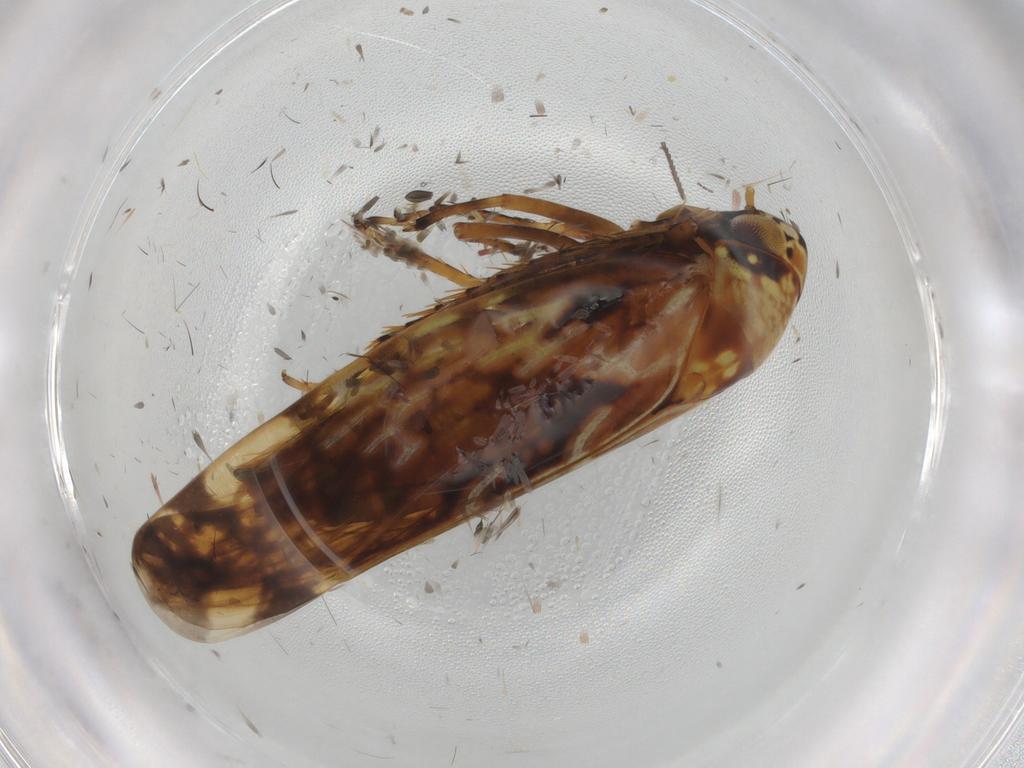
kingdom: Animalia
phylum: Arthropoda
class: Insecta
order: Hemiptera
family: Cicadellidae
